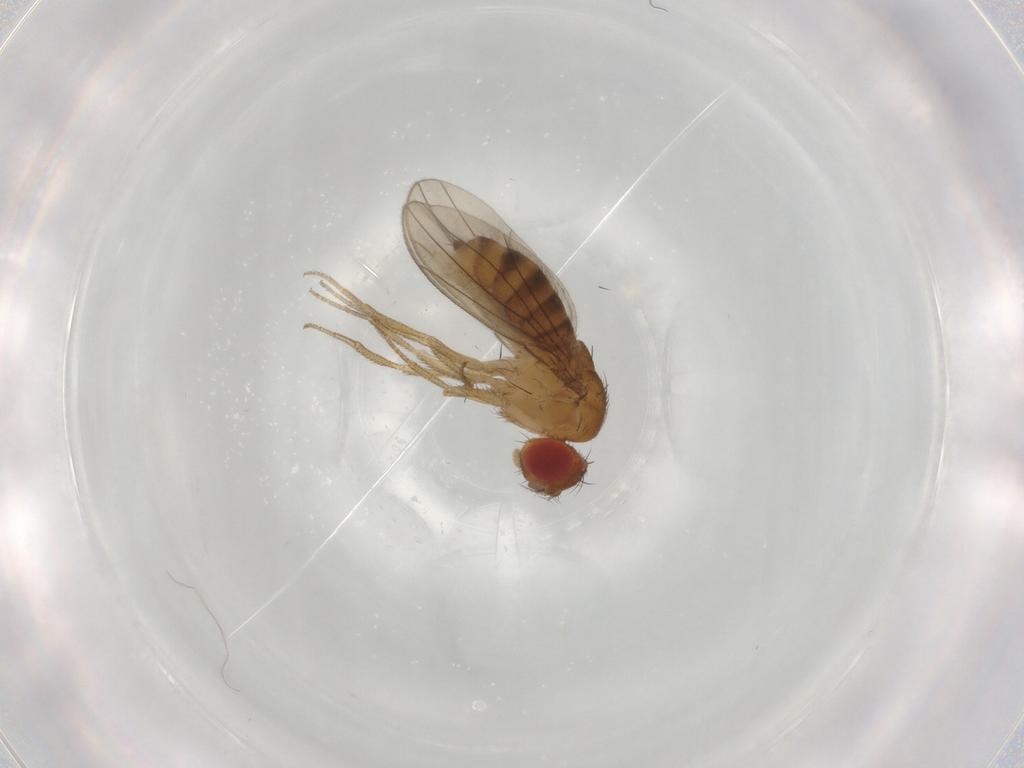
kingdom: Animalia
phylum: Arthropoda
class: Insecta
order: Diptera
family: Drosophilidae
